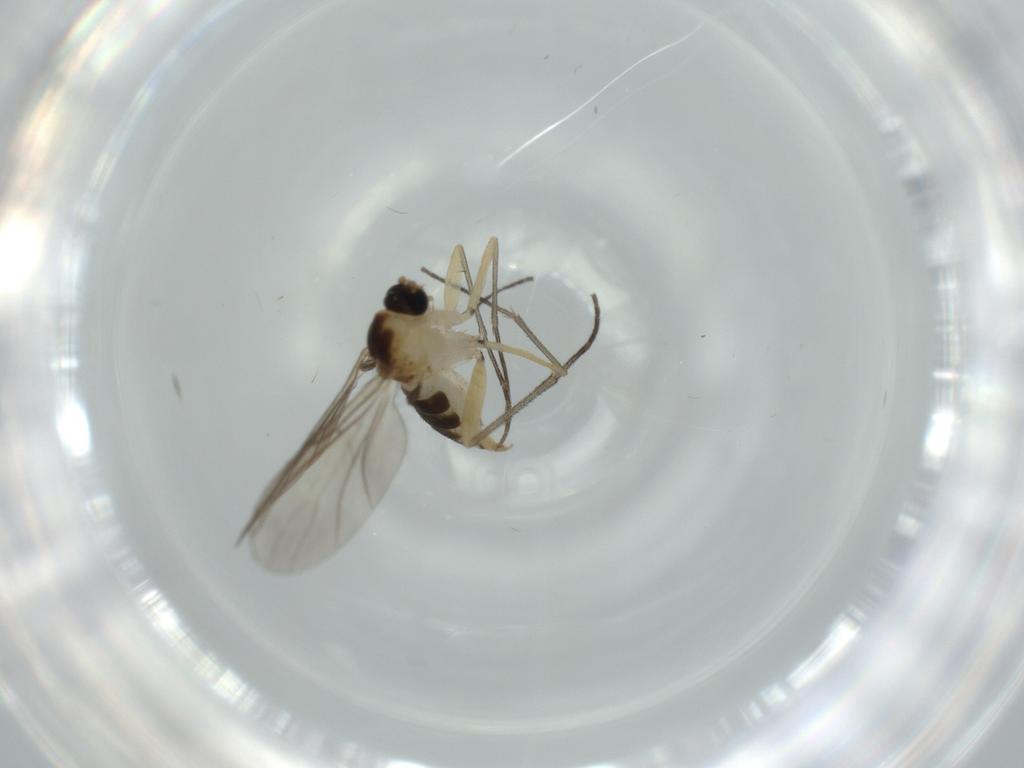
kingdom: Animalia
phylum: Arthropoda
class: Insecta
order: Diptera
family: Sciaridae
